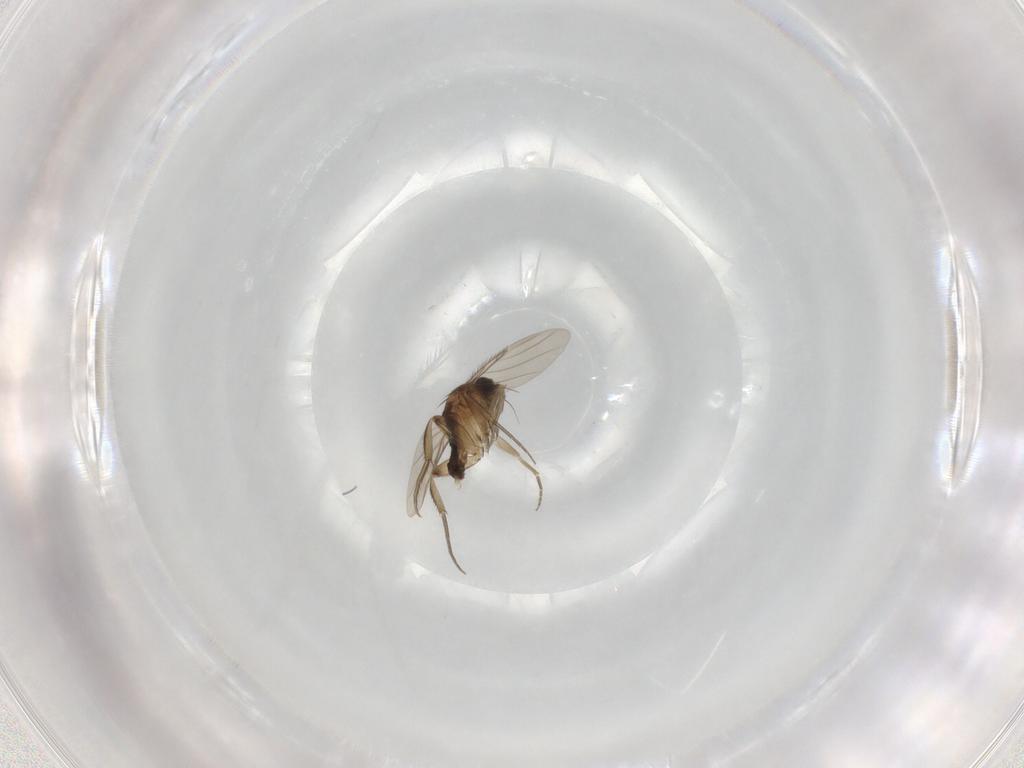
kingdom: Animalia
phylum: Arthropoda
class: Insecta
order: Diptera
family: Phoridae
